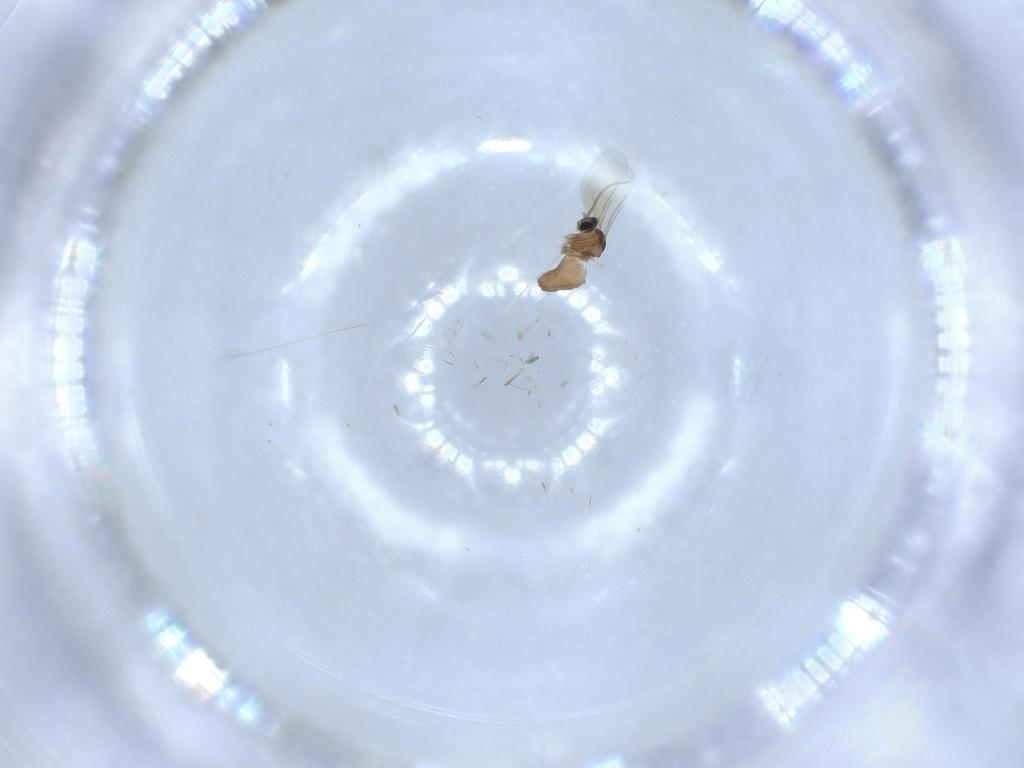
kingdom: Animalia
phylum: Arthropoda
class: Insecta
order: Diptera
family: Cecidomyiidae
